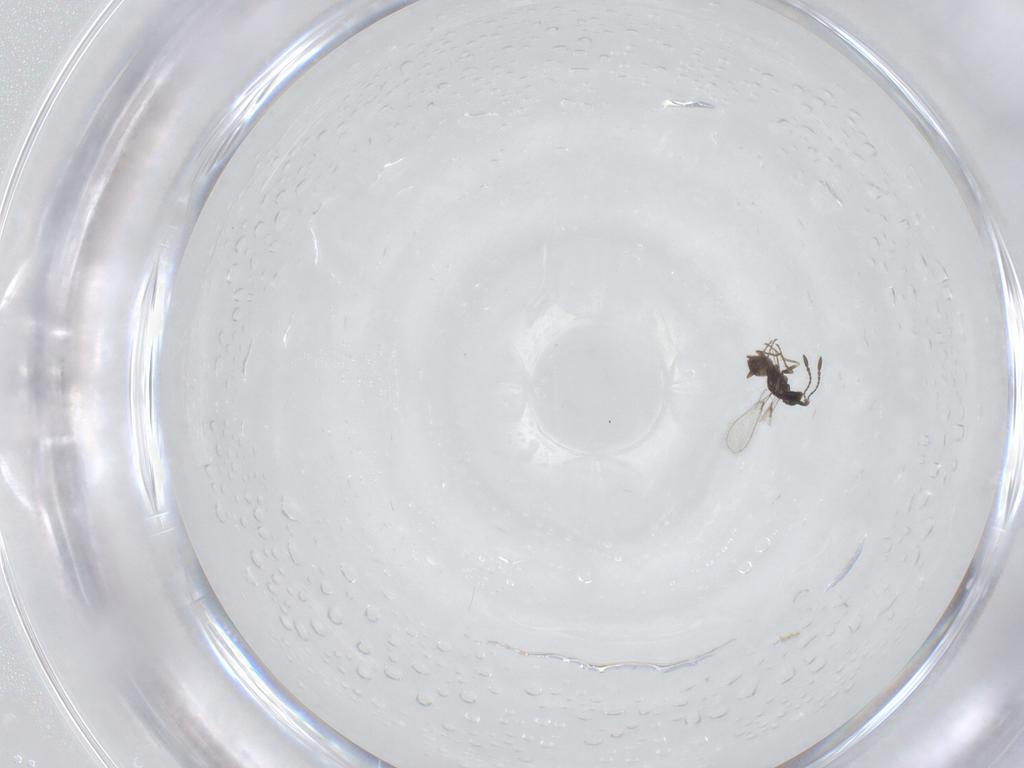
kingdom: Animalia
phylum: Arthropoda
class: Insecta
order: Hymenoptera
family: Mymaridae
